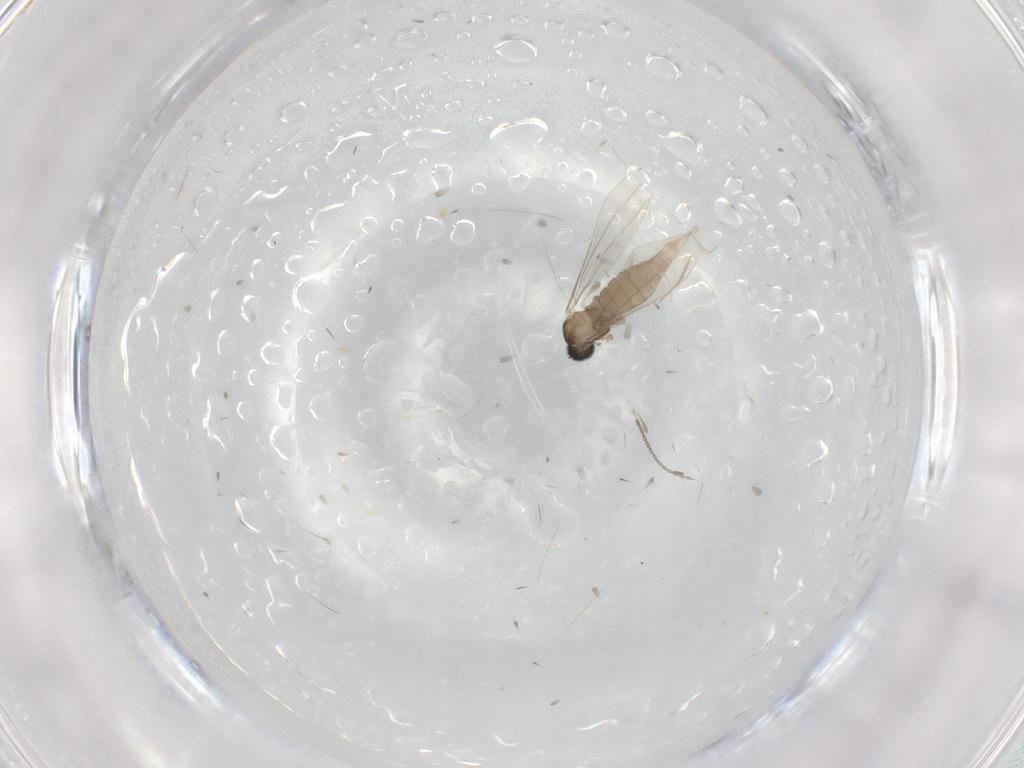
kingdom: Animalia
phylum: Arthropoda
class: Insecta
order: Diptera
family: Cecidomyiidae
